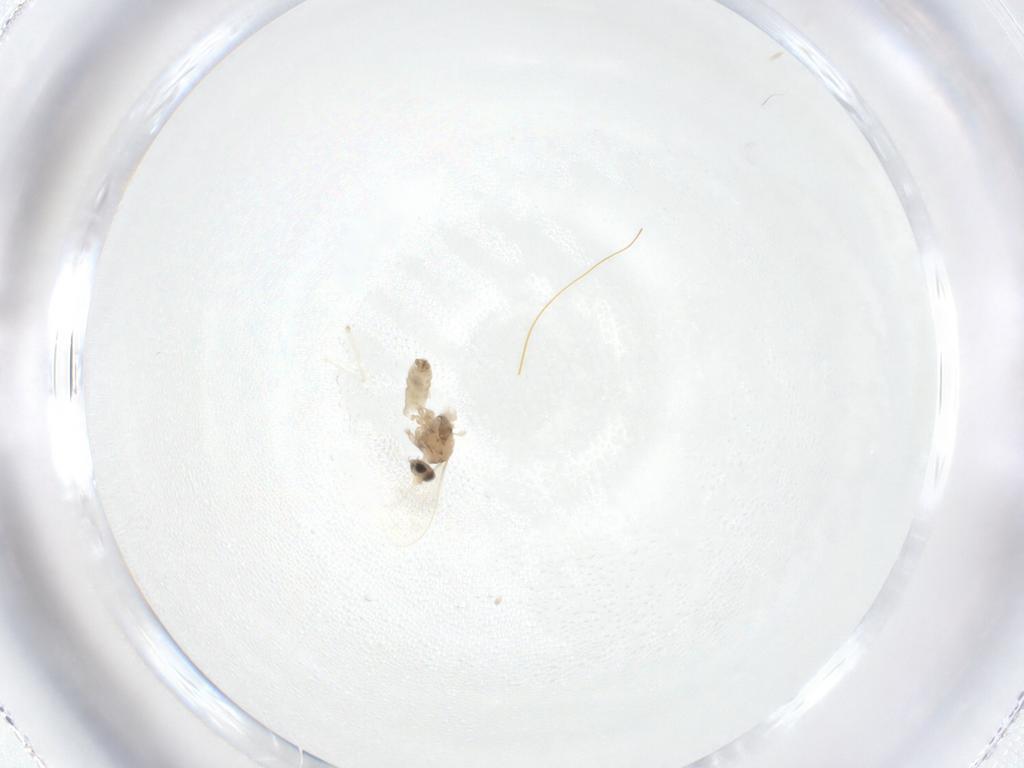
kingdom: Animalia
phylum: Arthropoda
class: Insecta
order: Diptera
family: Cecidomyiidae
